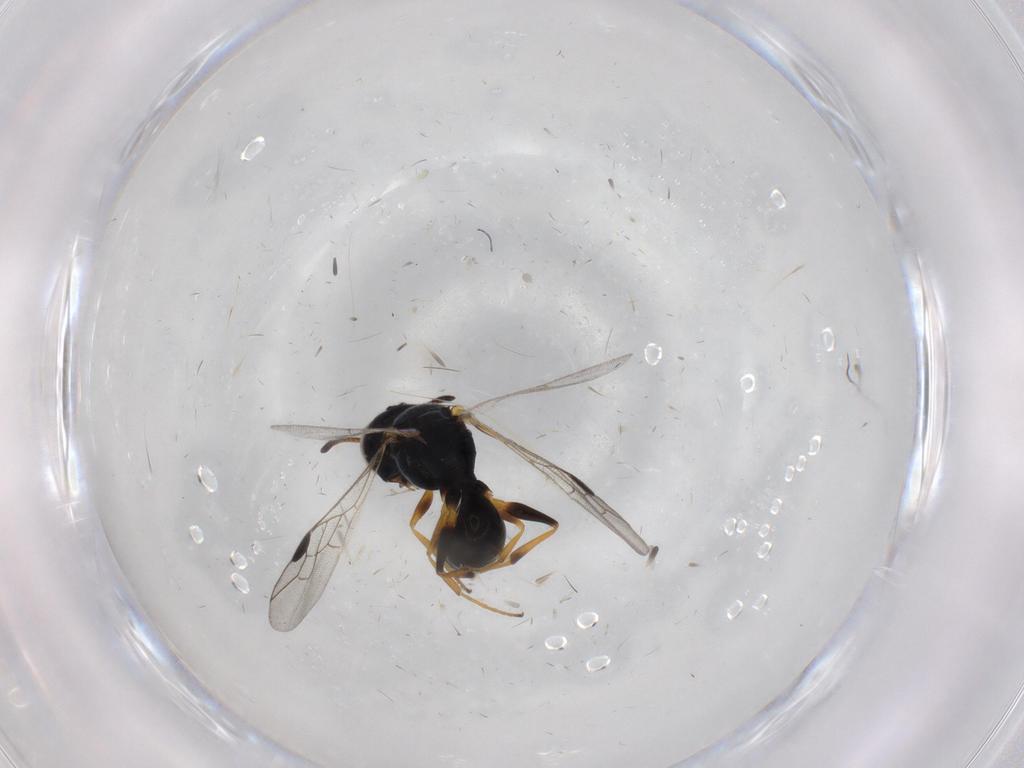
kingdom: Animalia
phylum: Arthropoda
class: Insecta
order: Hymenoptera
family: Pemphredonidae
